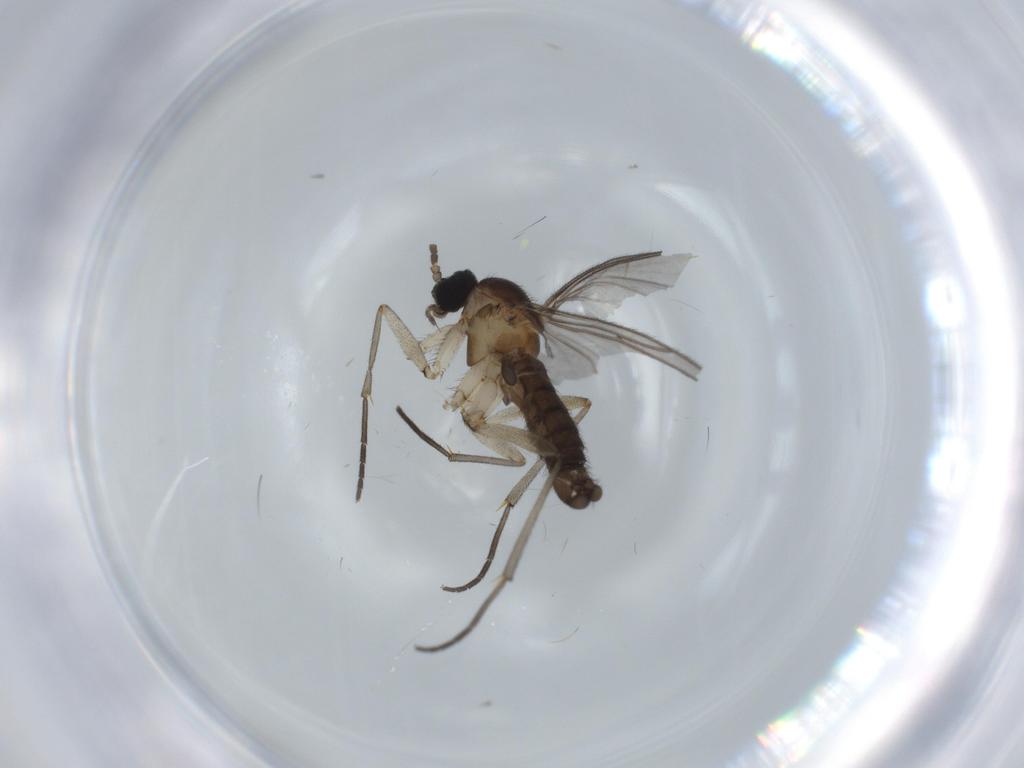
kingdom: Animalia
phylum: Arthropoda
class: Insecta
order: Diptera
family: Sciaridae
